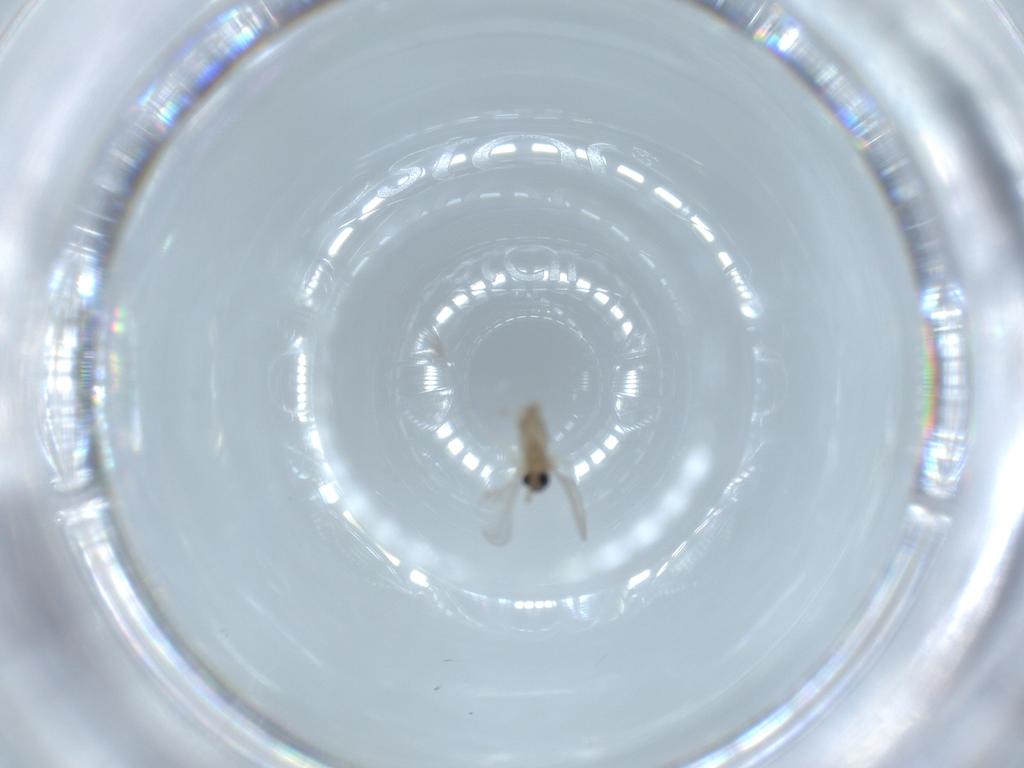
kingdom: Animalia
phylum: Arthropoda
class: Insecta
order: Diptera
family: Cecidomyiidae
